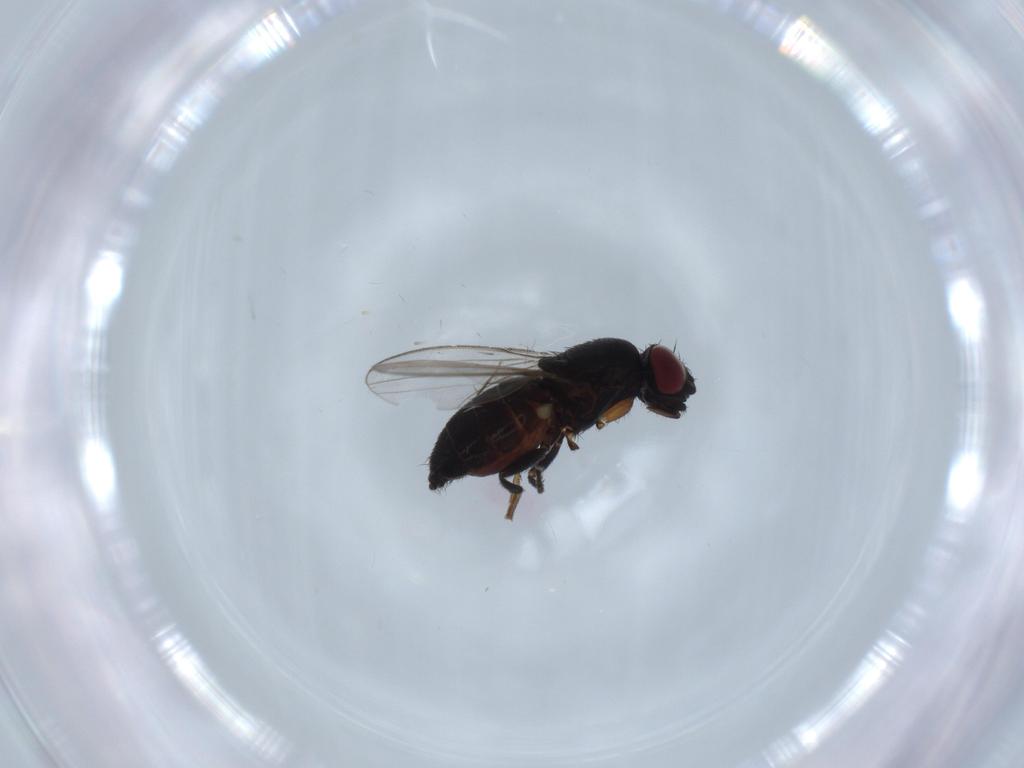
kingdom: Animalia
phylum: Arthropoda
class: Insecta
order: Diptera
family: Milichiidae
